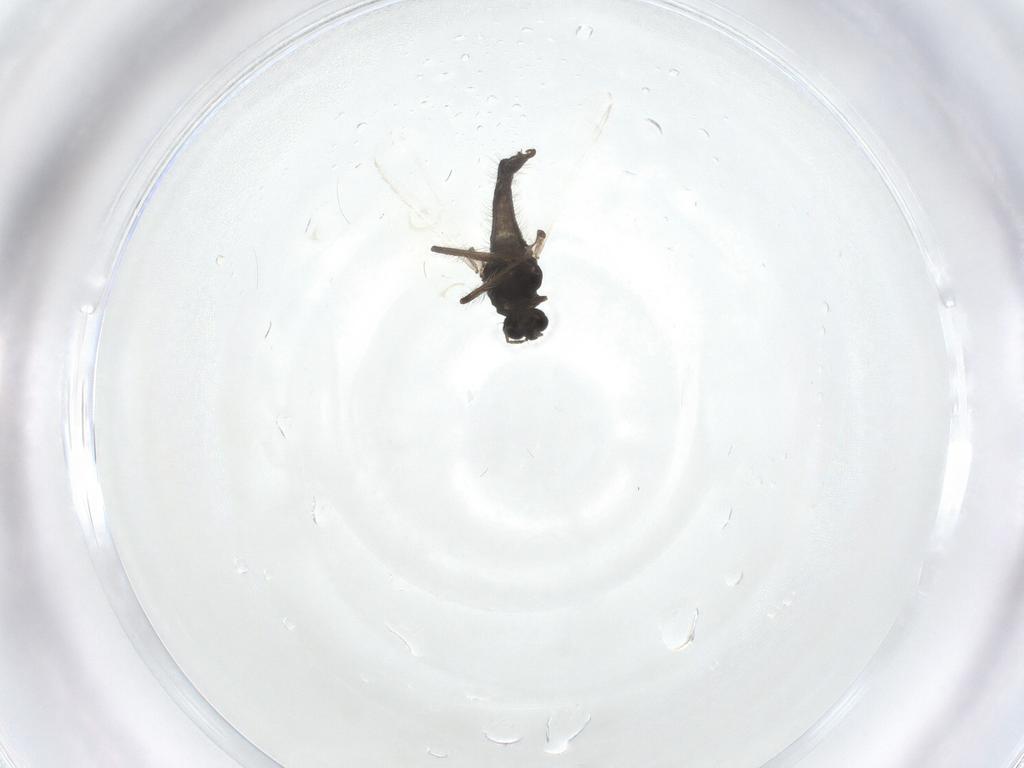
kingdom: Animalia
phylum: Arthropoda
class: Insecta
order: Diptera
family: Chironomidae
